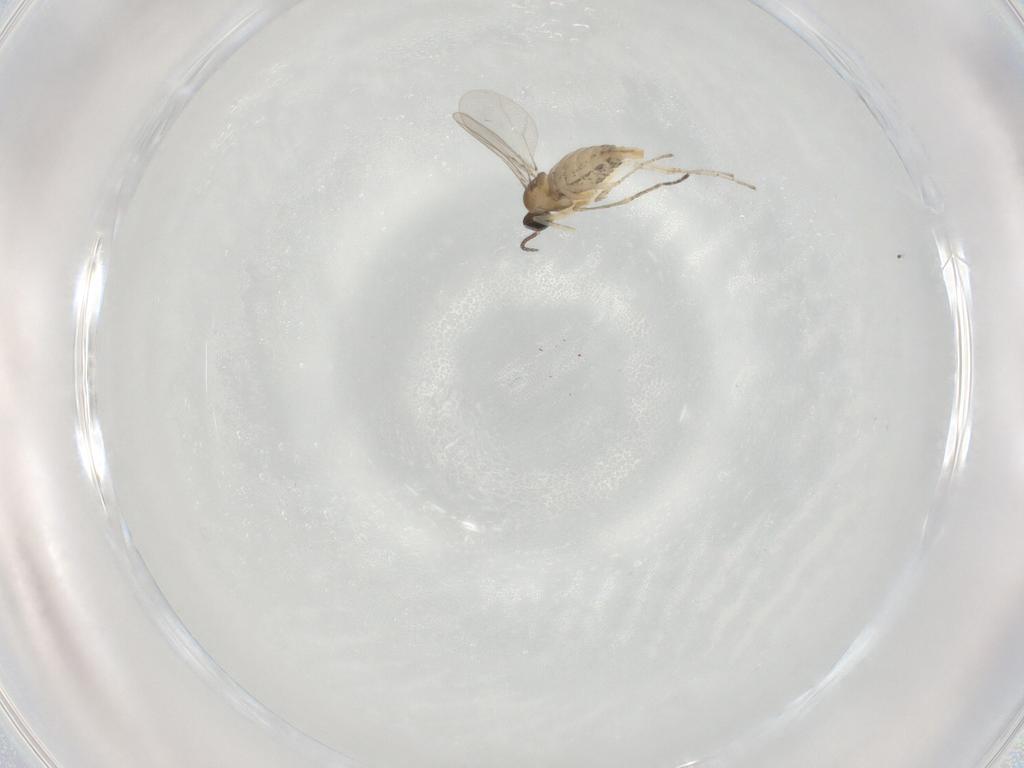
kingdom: Animalia
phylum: Arthropoda
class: Insecta
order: Diptera
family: Cecidomyiidae
